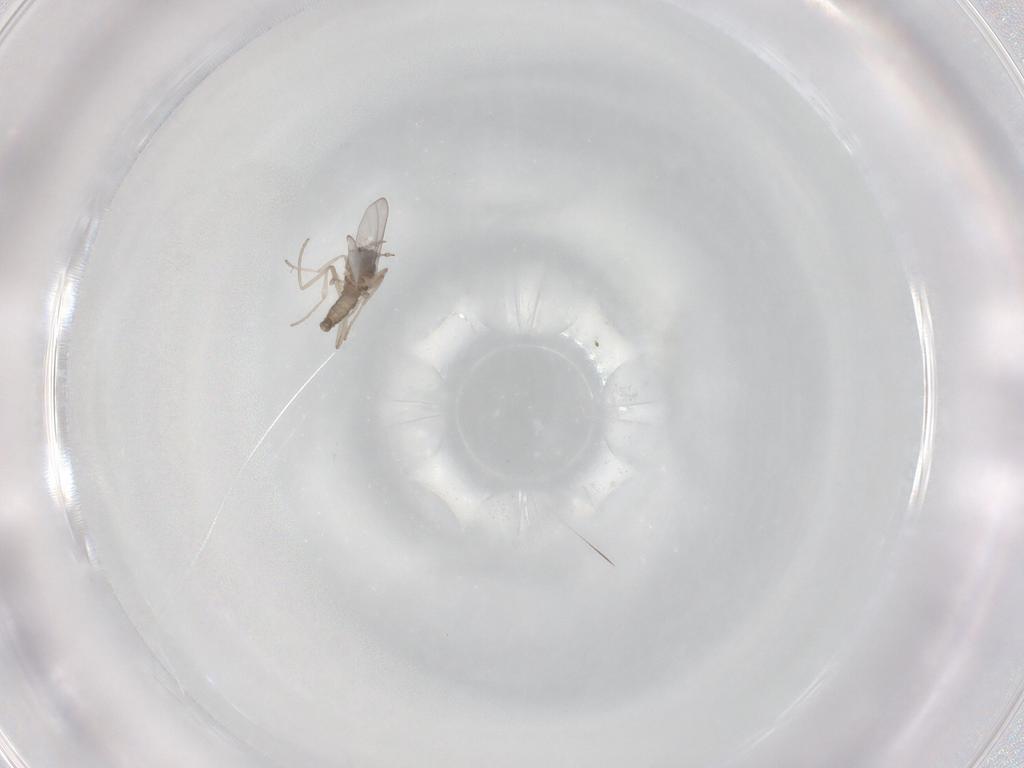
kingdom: Animalia
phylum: Arthropoda
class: Insecta
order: Diptera
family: Cecidomyiidae
